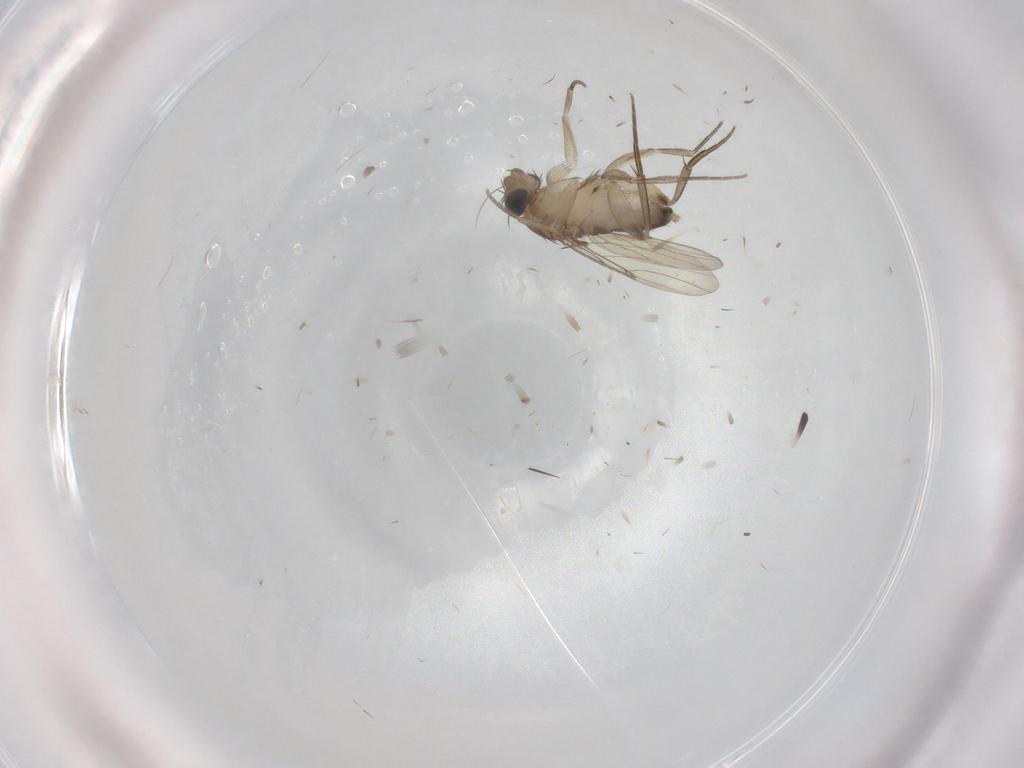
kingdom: Animalia
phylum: Arthropoda
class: Insecta
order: Diptera
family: Phoridae
